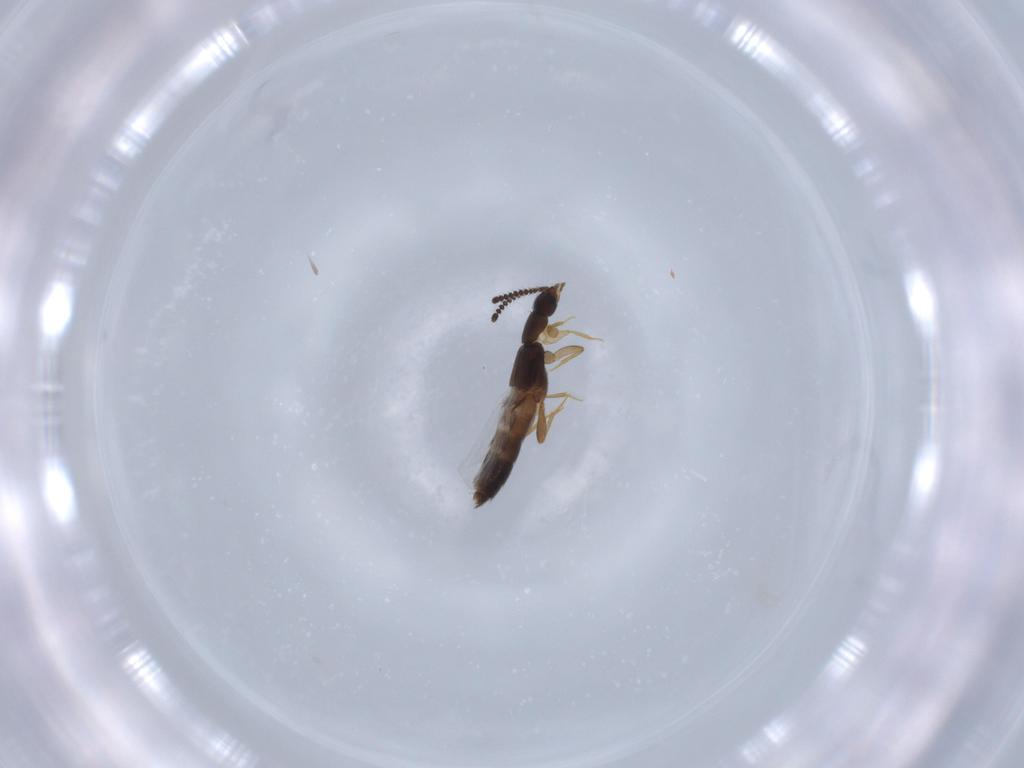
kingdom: Animalia
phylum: Arthropoda
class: Insecta
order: Coleoptera
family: Staphylinidae
